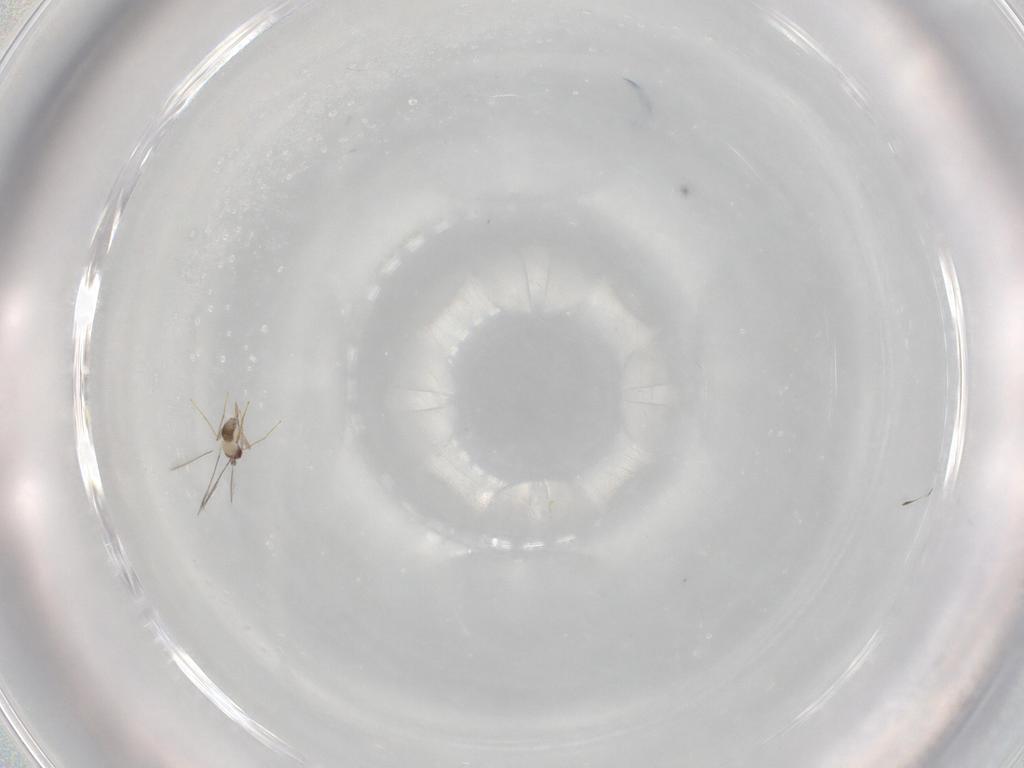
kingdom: Animalia
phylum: Arthropoda
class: Insecta
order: Hymenoptera
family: Mymaridae
